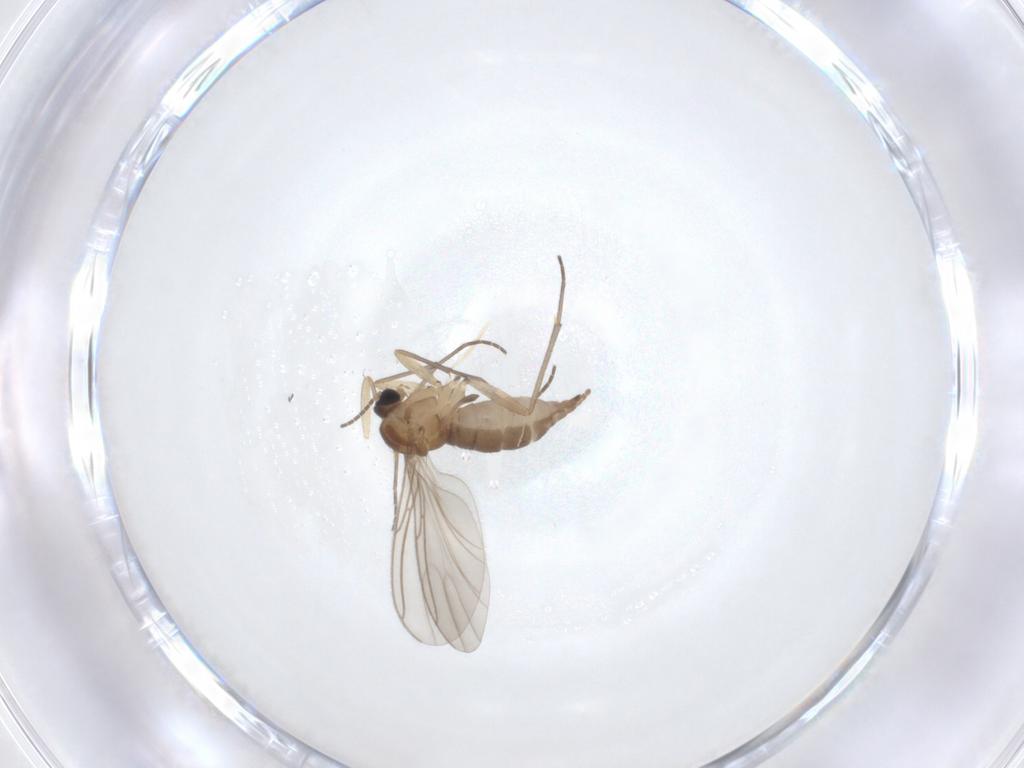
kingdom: Animalia
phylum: Arthropoda
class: Insecta
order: Diptera
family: Sciaridae
